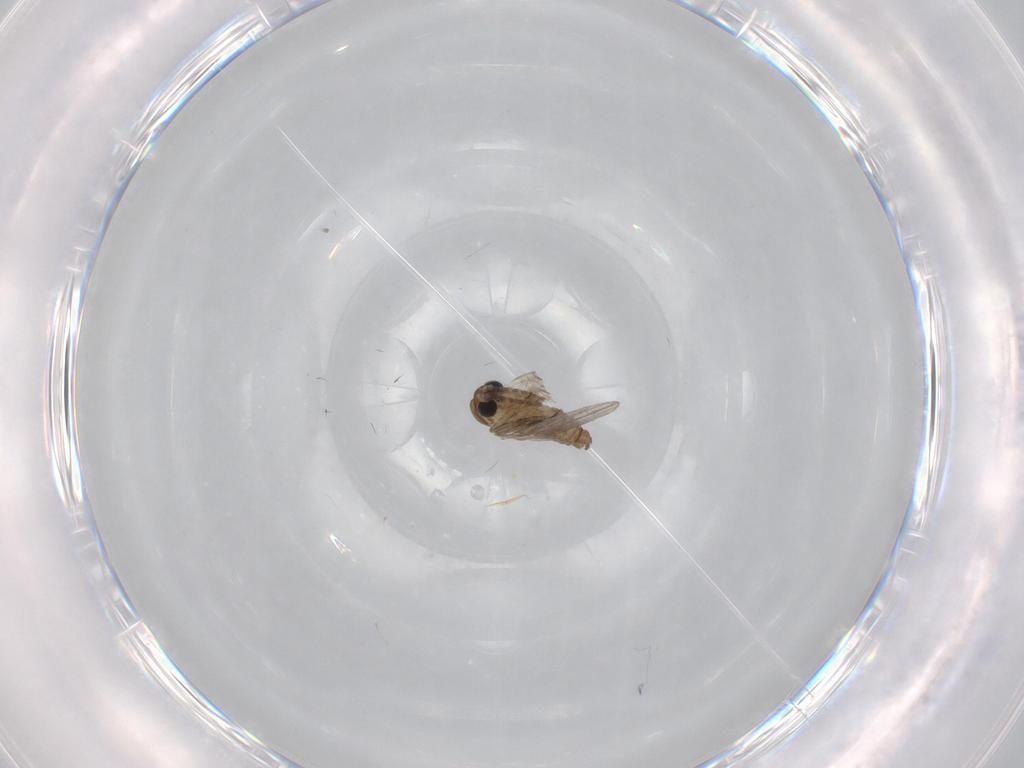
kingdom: Animalia
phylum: Arthropoda
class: Insecta
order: Diptera
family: Psychodidae
